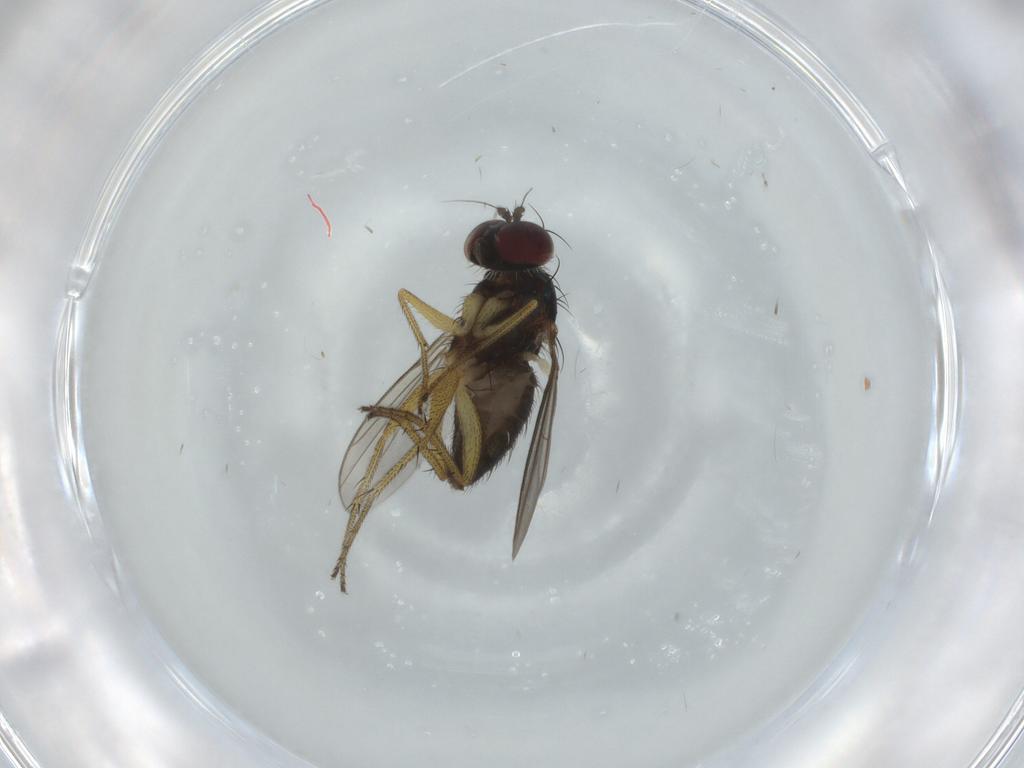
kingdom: Animalia
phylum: Arthropoda
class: Insecta
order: Diptera
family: Dolichopodidae
